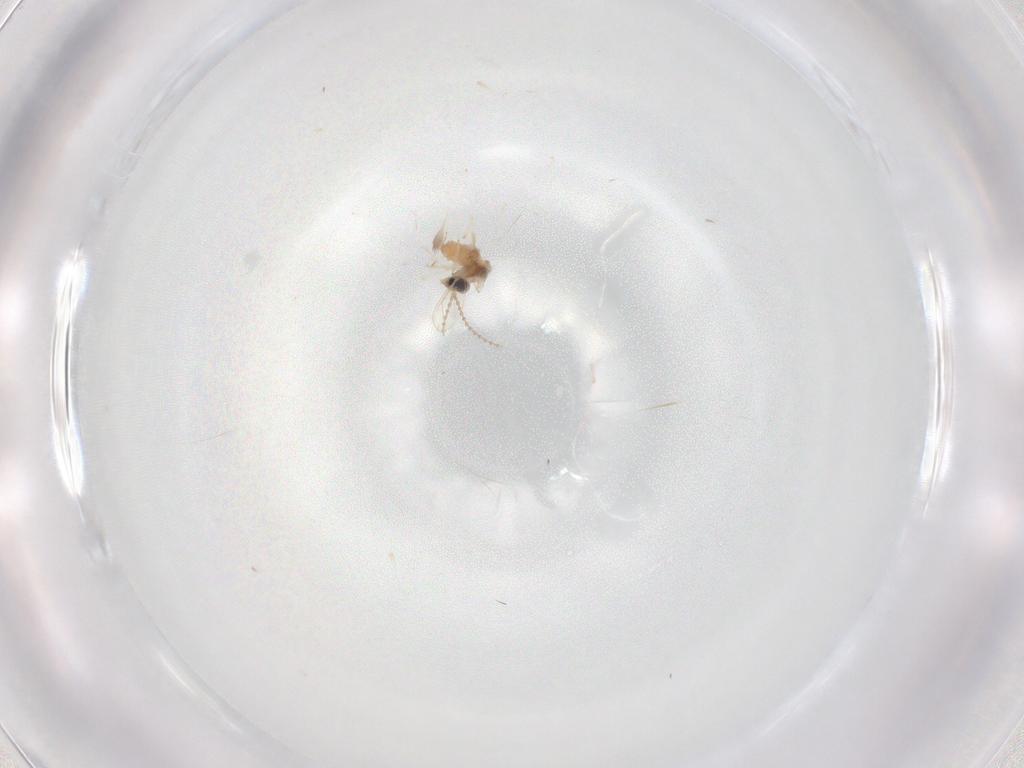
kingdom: Animalia
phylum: Arthropoda
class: Insecta
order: Diptera
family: Cecidomyiidae
